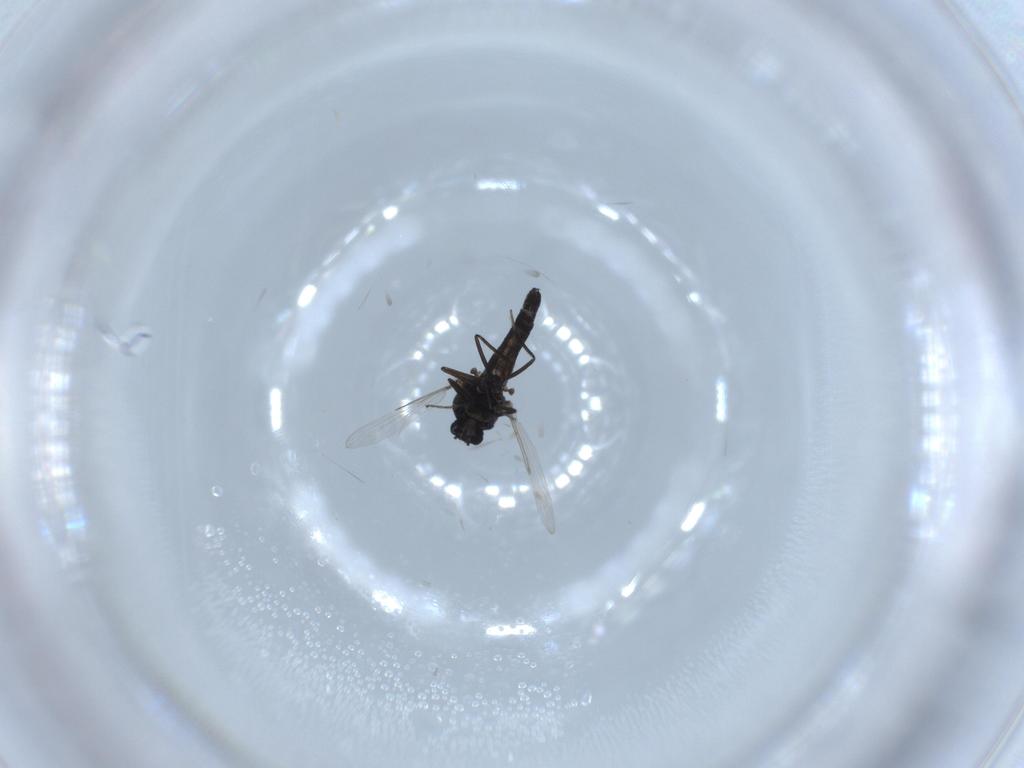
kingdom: Animalia
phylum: Arthropoda
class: Insecta
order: Diptera
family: Ceratopogonidae
